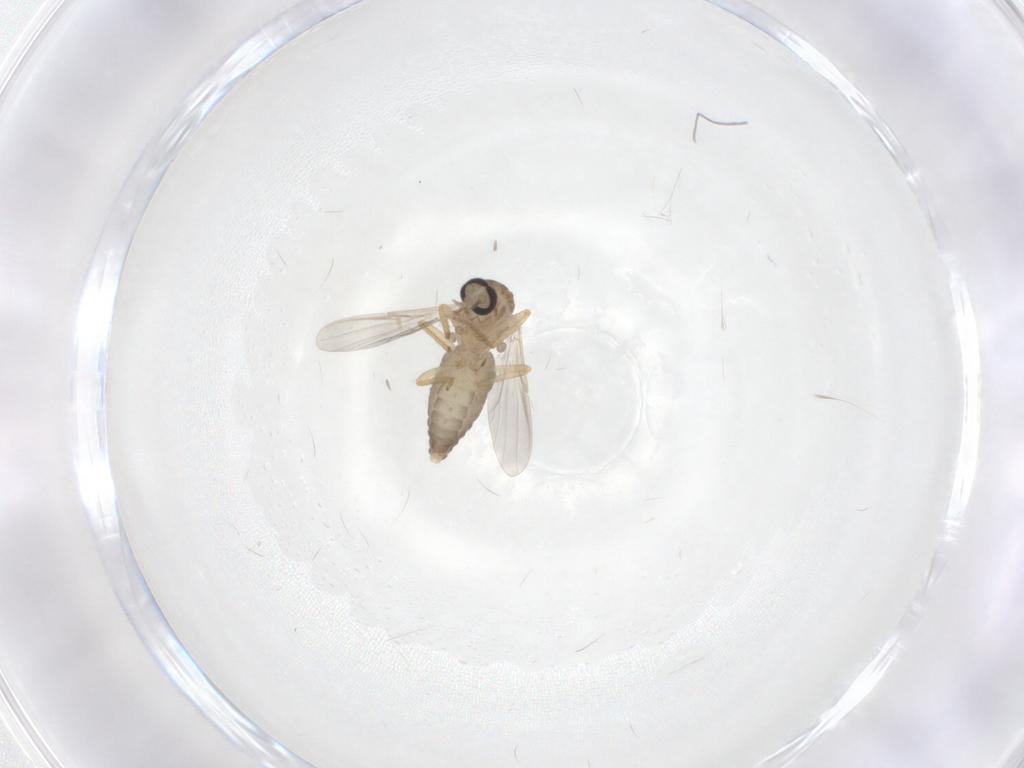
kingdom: Animalia
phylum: Arthropoda
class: Insecta
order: Diptera
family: Ceratopogonidae
